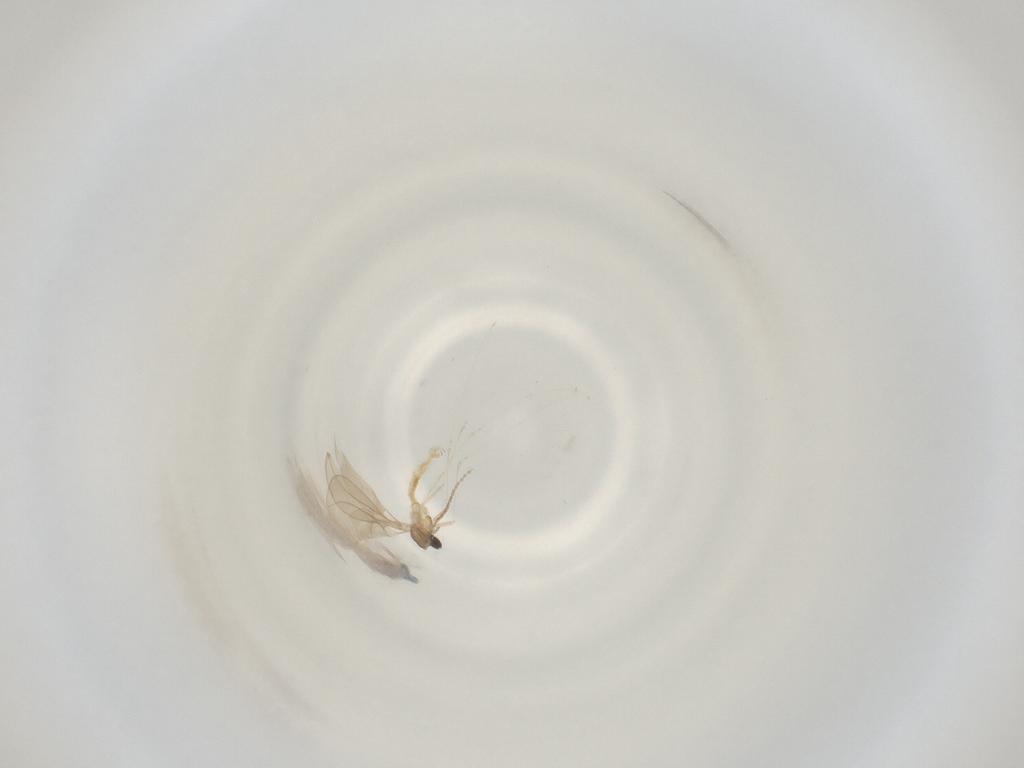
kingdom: Animalia
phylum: Arthropoda
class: Insecta
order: Diptera
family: Cecidomyiidae
